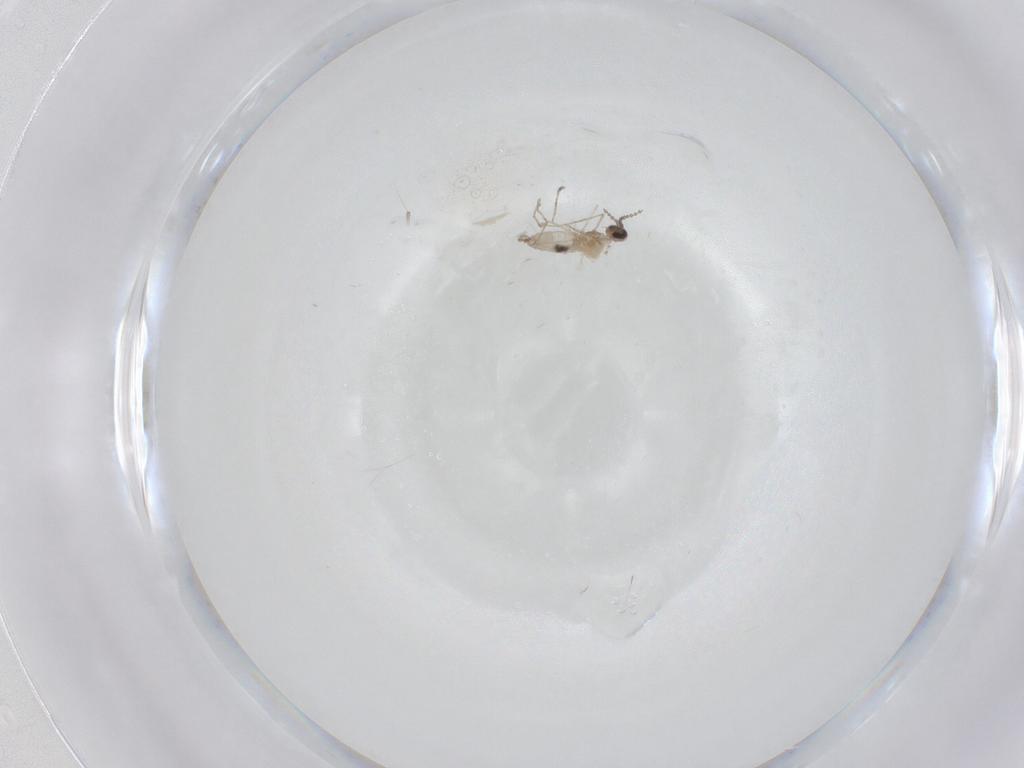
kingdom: Animalia
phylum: Arthropoda
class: Insecta
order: Diptera
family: Cecidomyiidae
